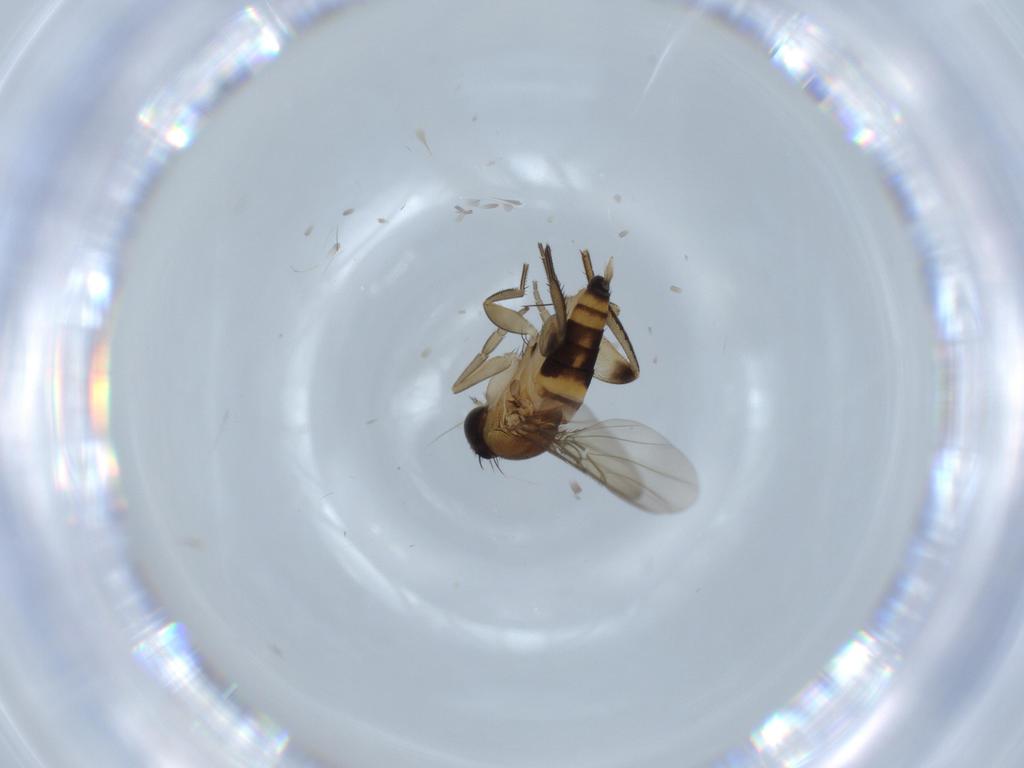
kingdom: Animalia
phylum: Arthropoda
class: Insecta
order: Diptera
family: Phoridae
